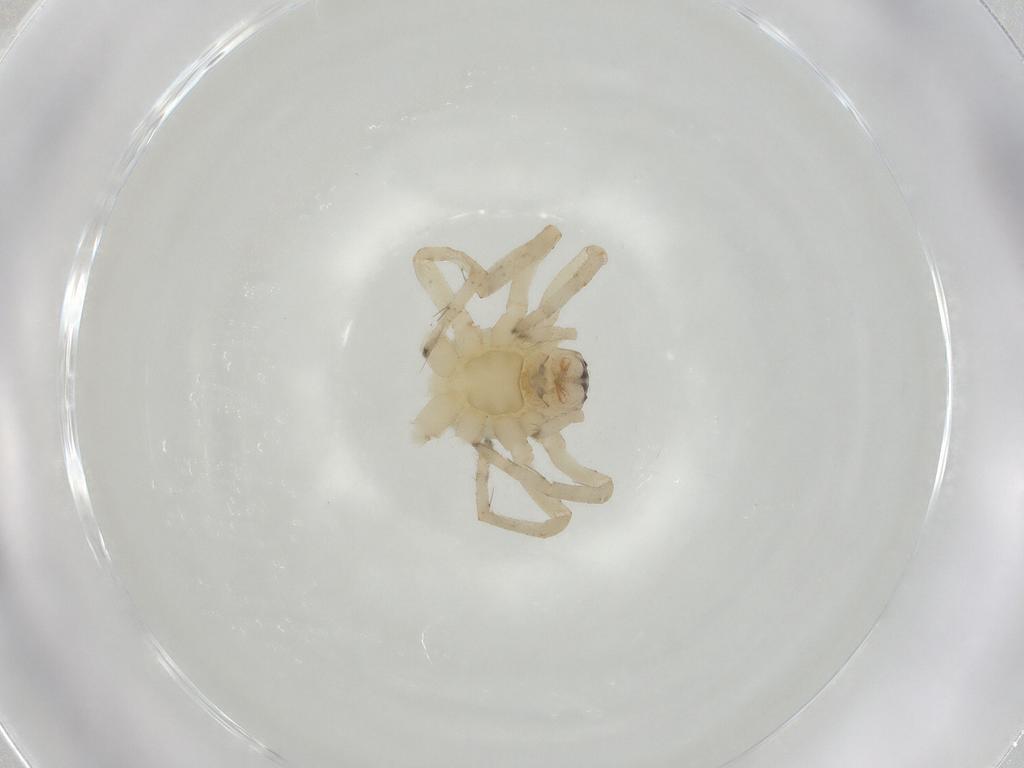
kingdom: Animalia
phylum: Arthropoda
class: Arachnida
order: Araneae
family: Clubionidae
